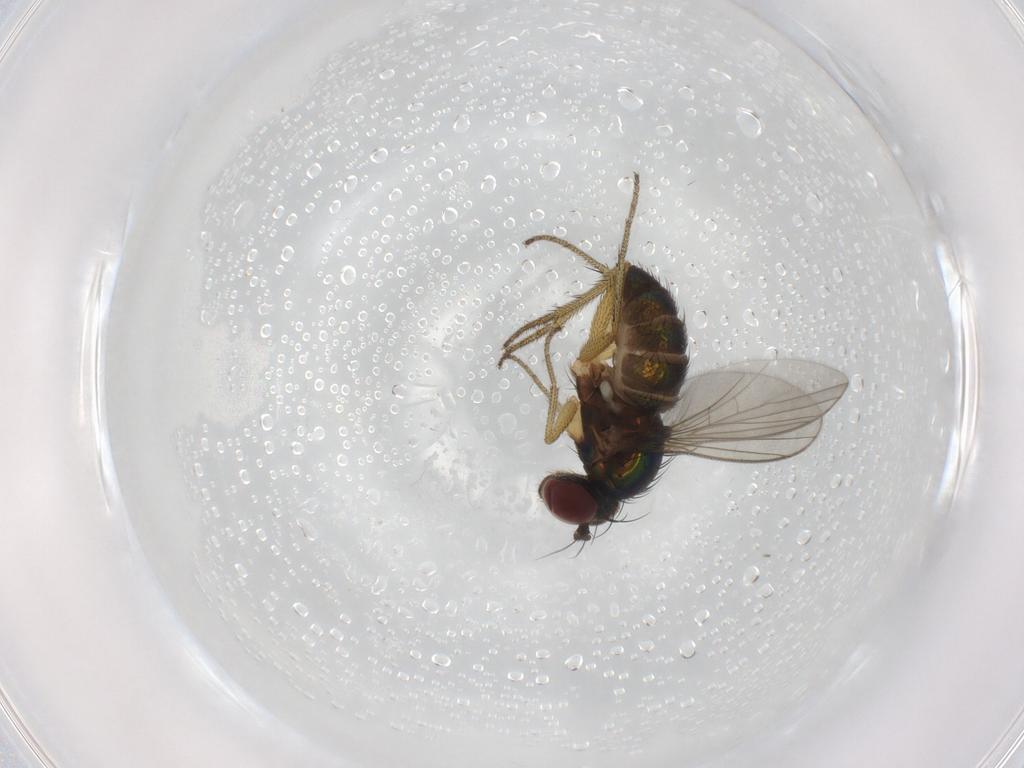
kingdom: Animalia
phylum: Arthropoda
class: Insecta
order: Diptera
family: Dolichopodidae
